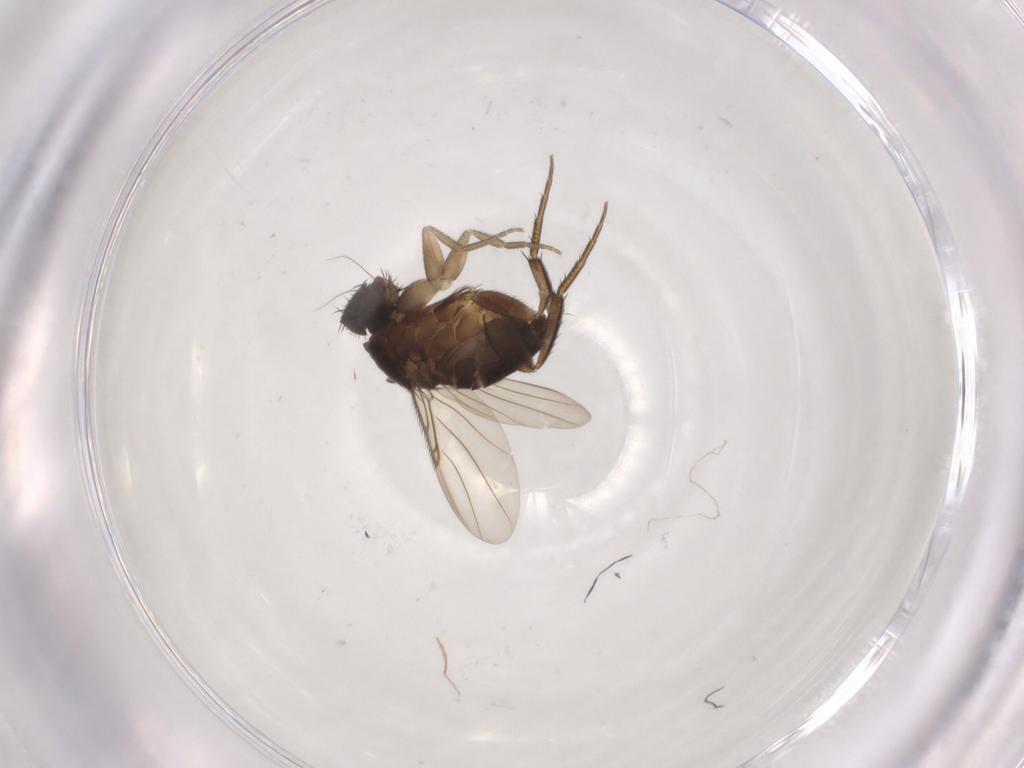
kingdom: Animalia
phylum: Arthropoda
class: Insecta
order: Diptera
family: Phoridae
